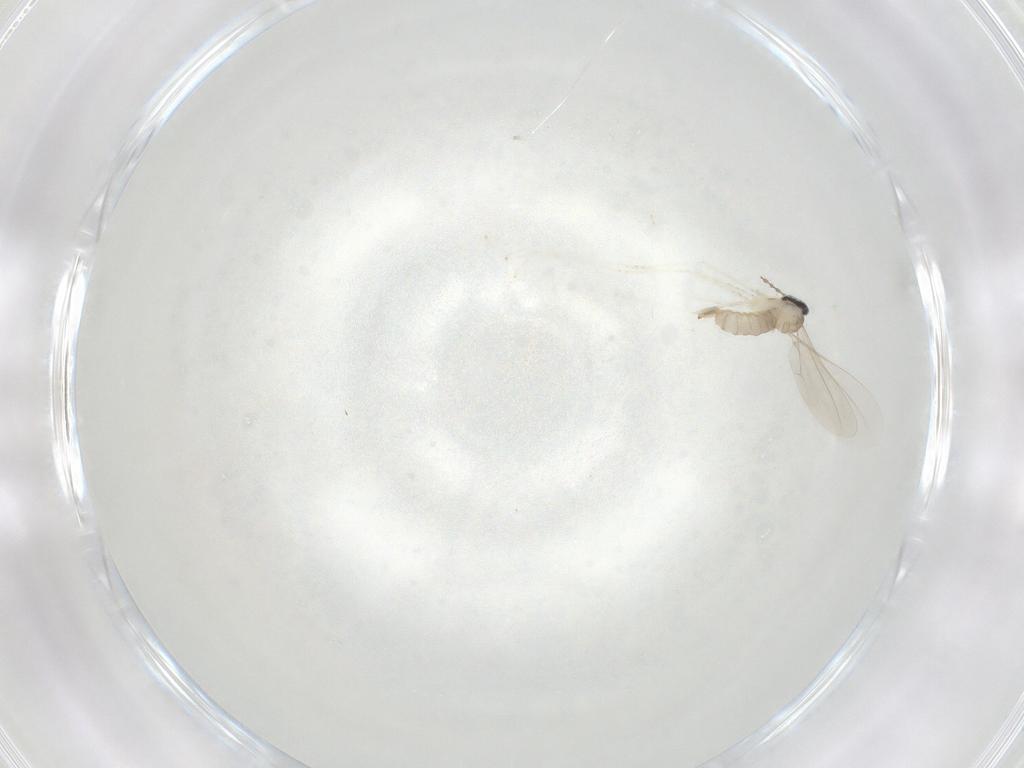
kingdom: Animalia
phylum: Arthropoda
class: Insecta
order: Diptera
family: Cecidomyiidae
